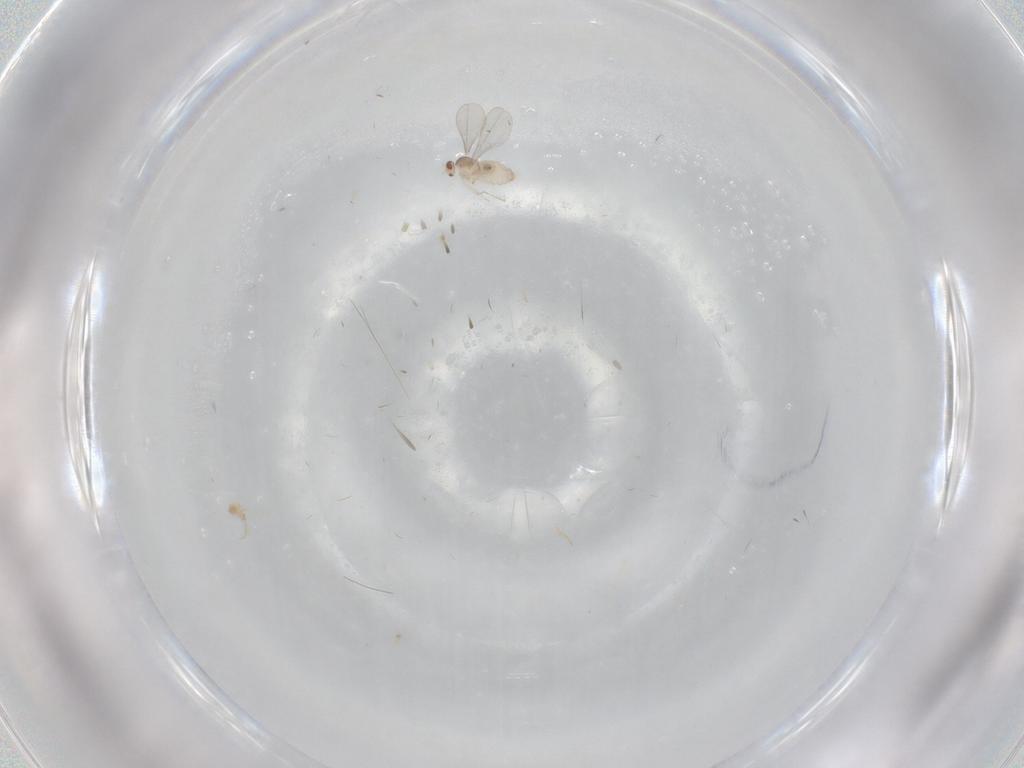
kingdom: Animalia
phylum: Arthropoda
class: Insecta
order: Diptera
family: Cecidomyiidae
